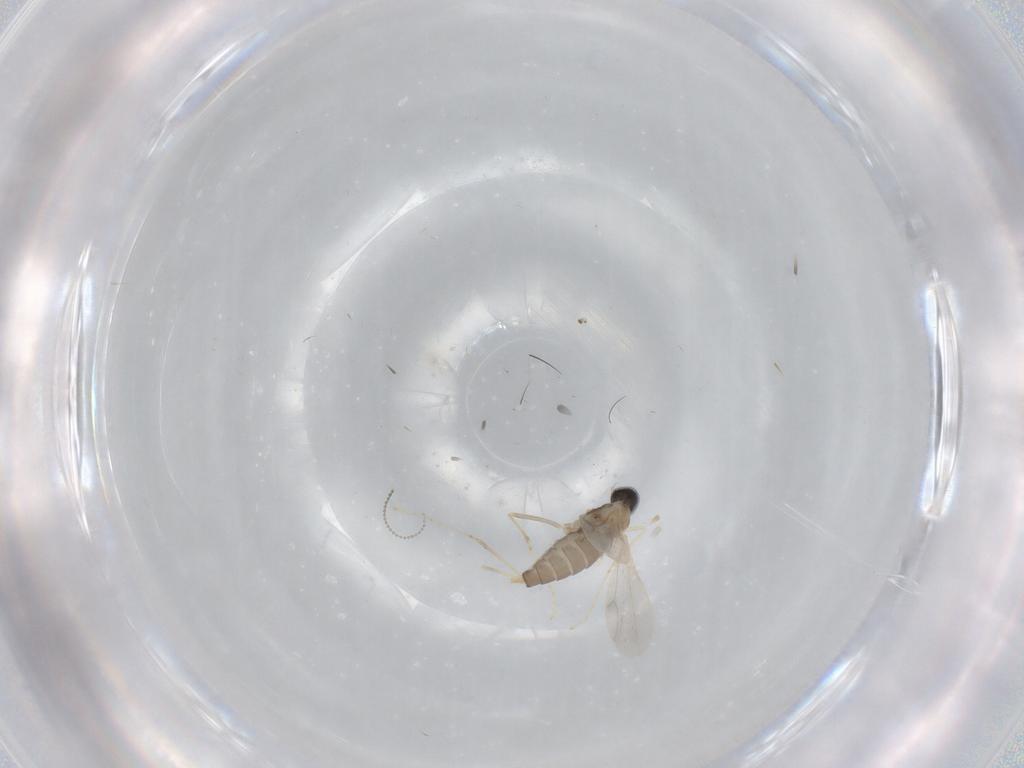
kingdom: Animalia
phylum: Arthropoda
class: Insecta
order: Diptera
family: Cecidomyiidae
